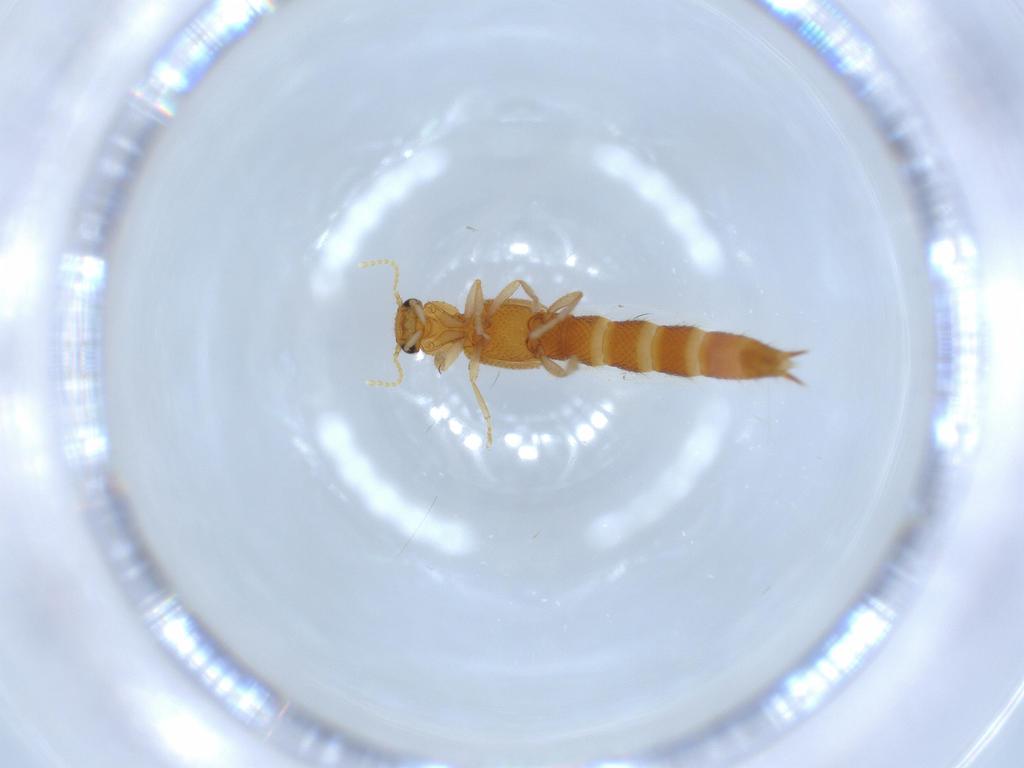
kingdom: Animalia
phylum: Arthropoda
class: Insecta
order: Coleoptera
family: Staphylinidae
